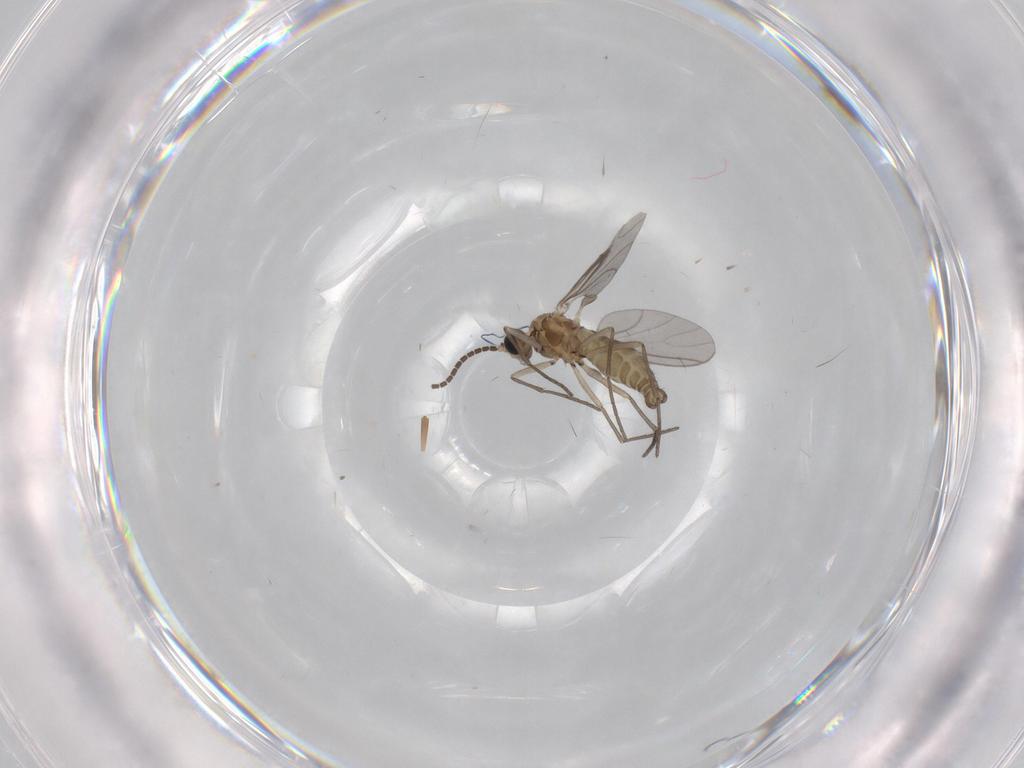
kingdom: Animalia
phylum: Arthropoda
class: Insecta
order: Diptera
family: Sciaridae
